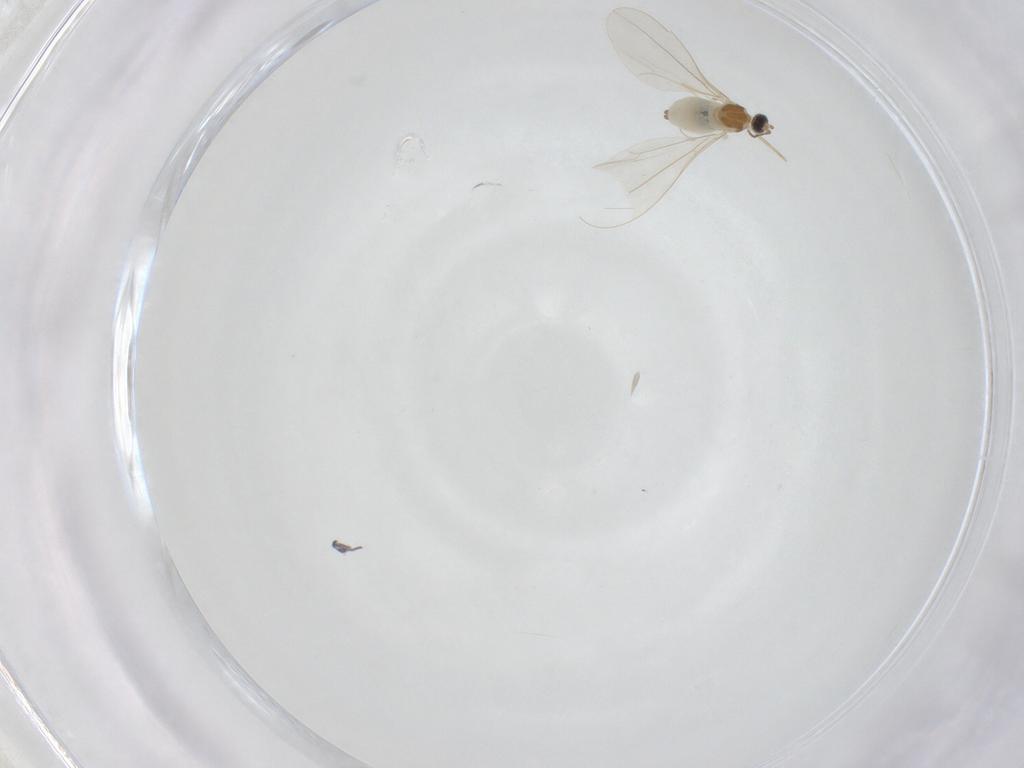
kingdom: Animalia
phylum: Arthropoda
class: Insecta
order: Diptera
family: Cecidomyiidae
